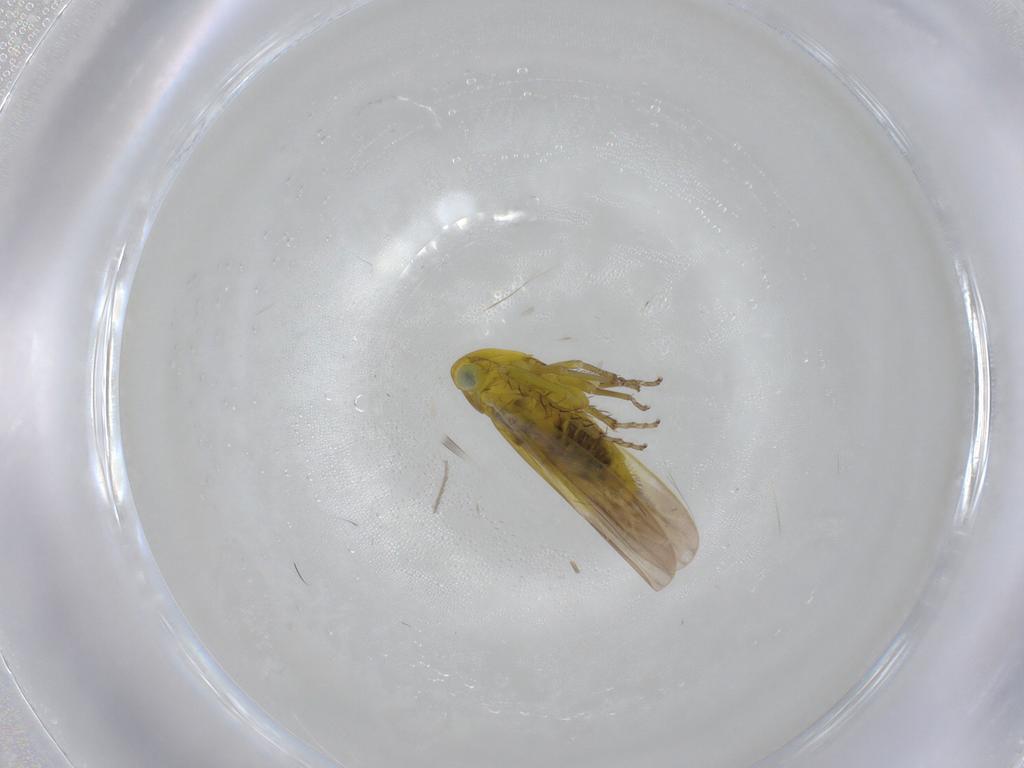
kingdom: Animalia
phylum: Arthropoda
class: Insecta
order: Hemiptera
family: Cicadellidae
